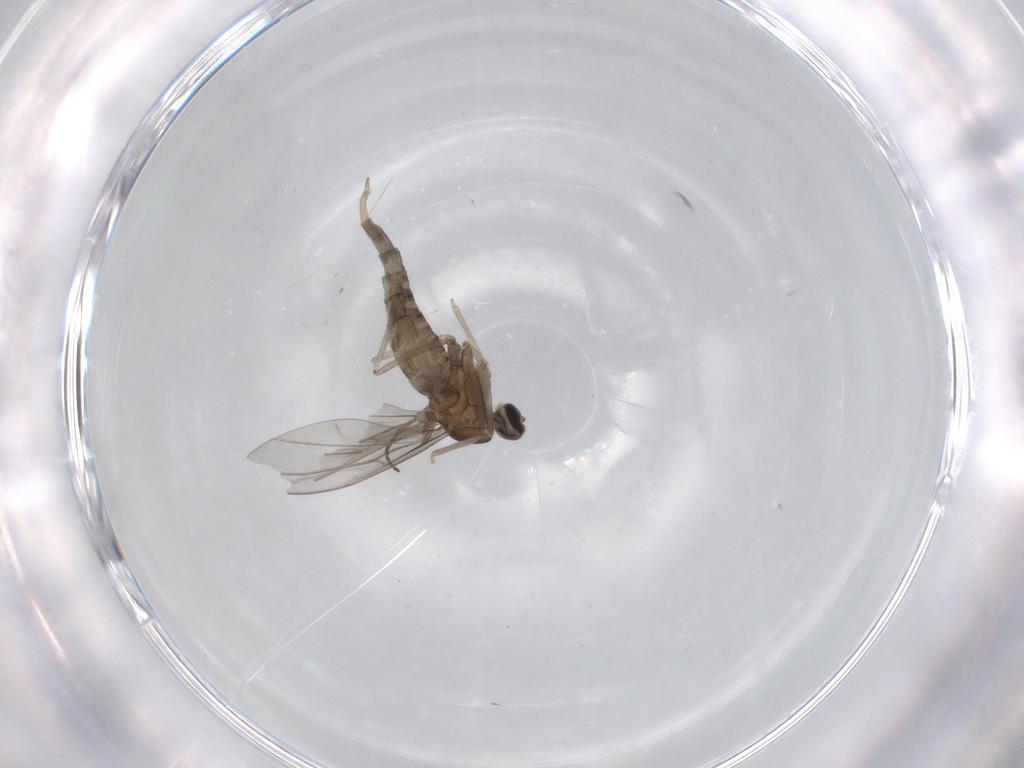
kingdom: Animalia
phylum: Arthropoda
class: Insecta
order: Diptera
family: Cecidomyiidae
